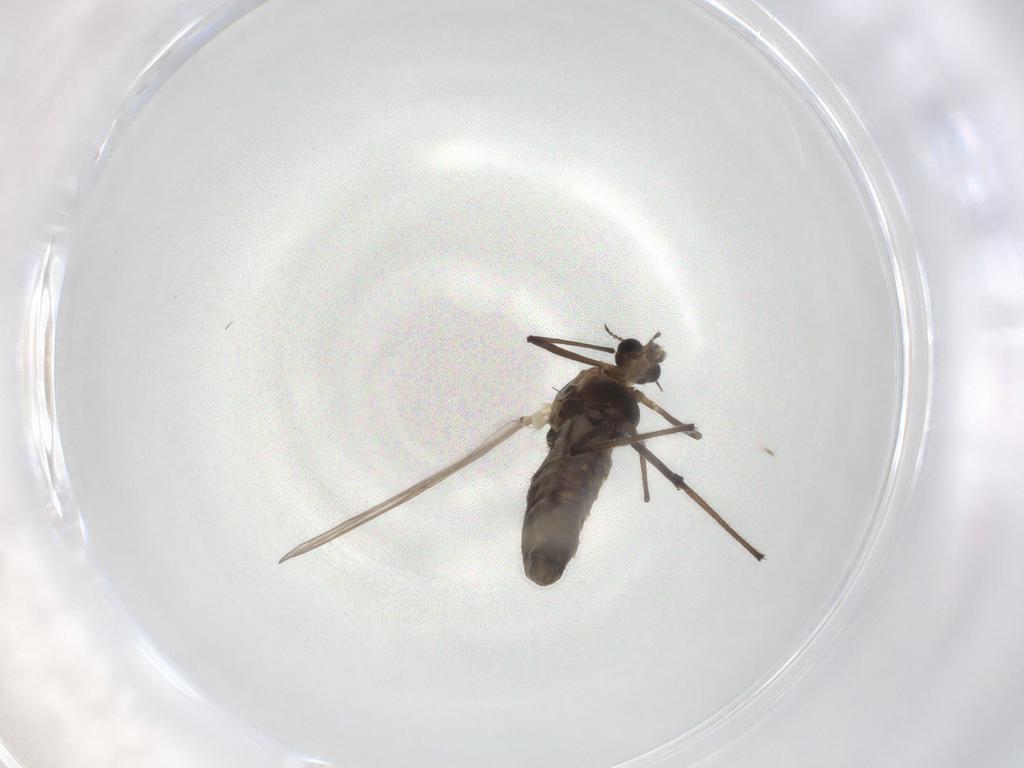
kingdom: Animalia
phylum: Arthropoda
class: Insecta
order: Diptera
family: Chironomidae
